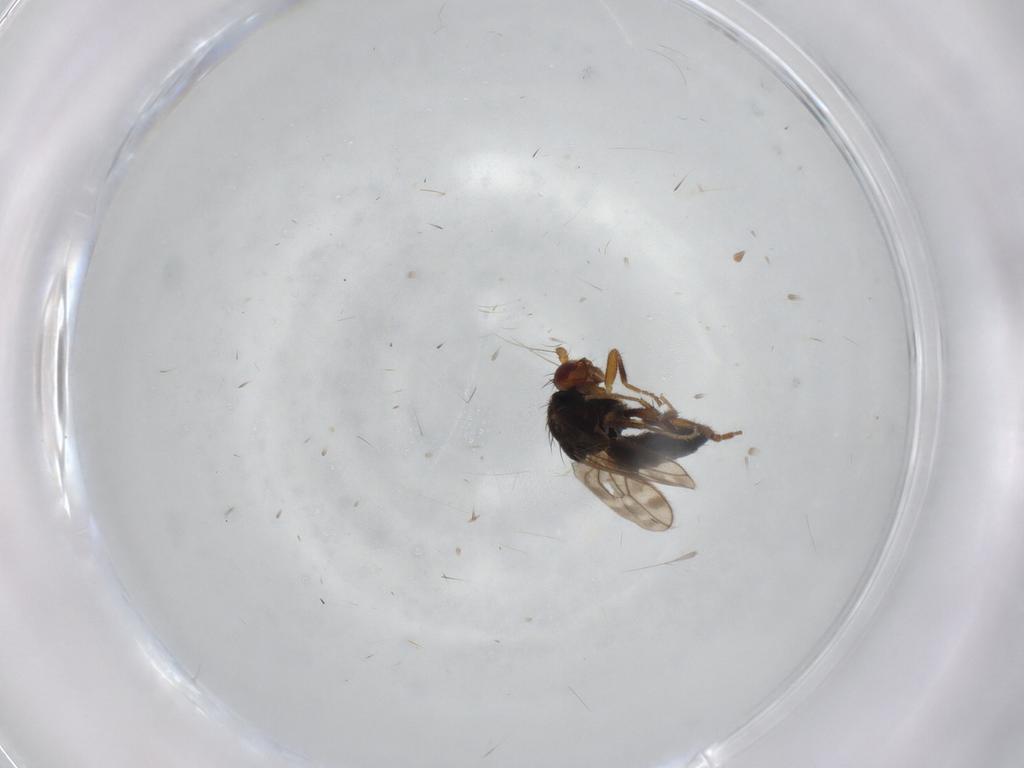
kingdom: Animalia
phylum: Arthropoda
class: Insecta
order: Diptera
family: Sphaeroceridae
